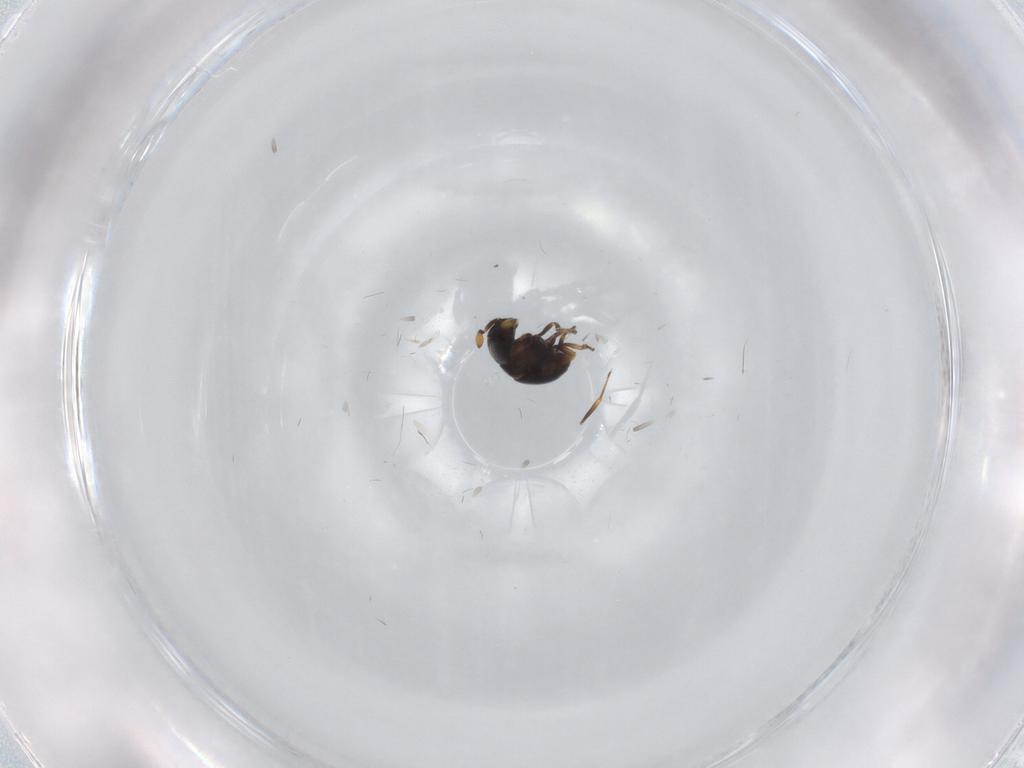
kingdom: Animalia
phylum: Arthropoda
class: Insecta
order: Hymenoptera
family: Scelionidae
